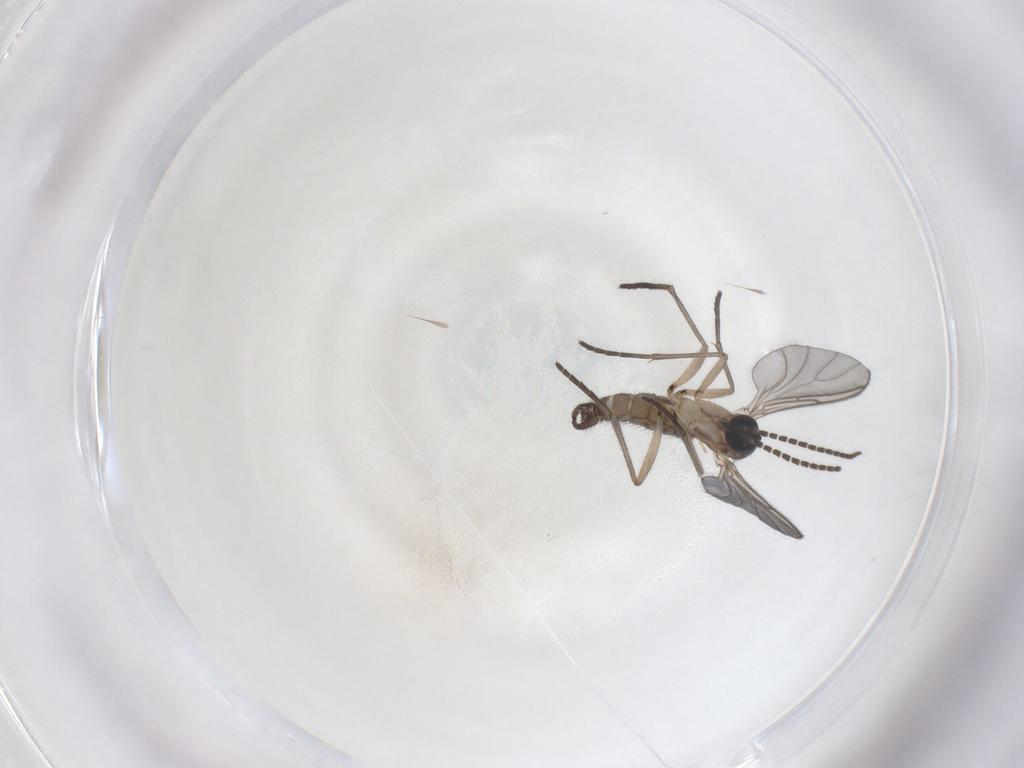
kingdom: Animalia
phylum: Arthropoda
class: Insecta
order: Diptera
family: Sciaridae
